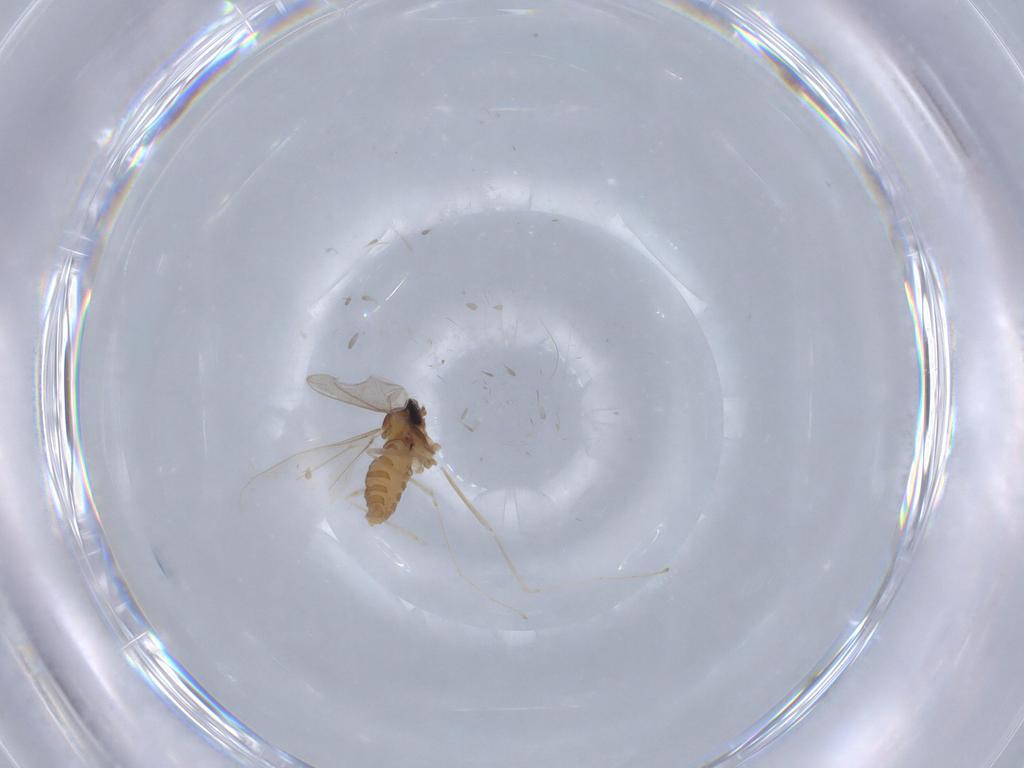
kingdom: Animalia
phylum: Arthropoda
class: Insecta
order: Diptera
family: Cecidomyiidae
